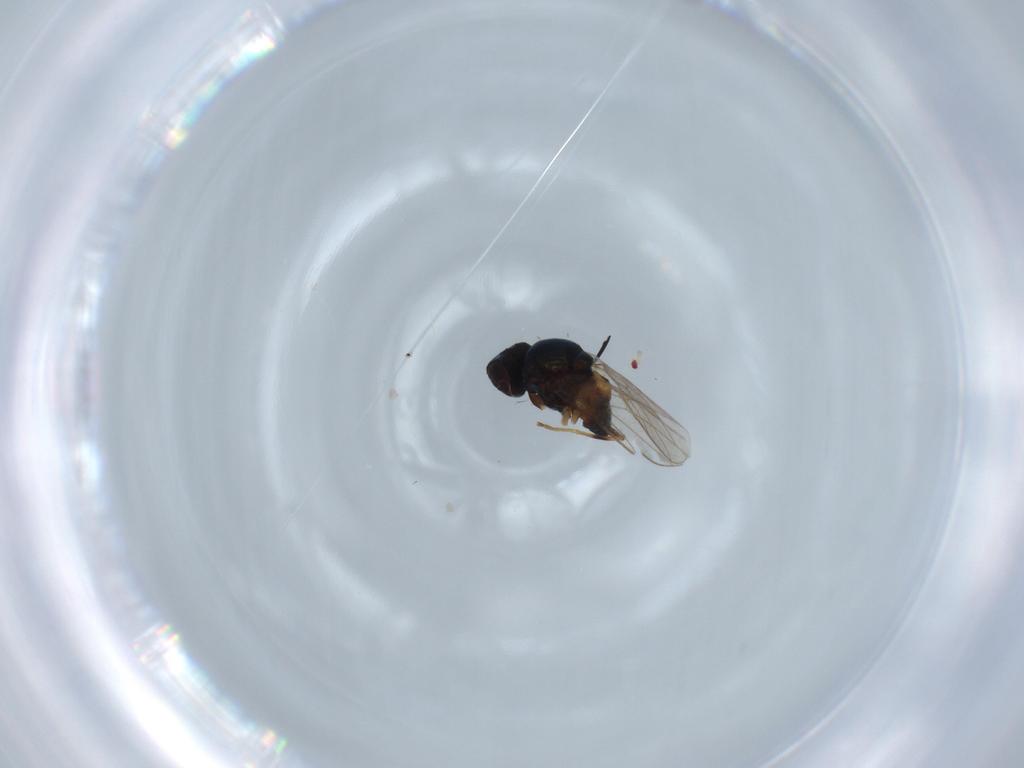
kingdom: Animalia
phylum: Arthropoda
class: Insecta
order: Diptera
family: Chloropidae
